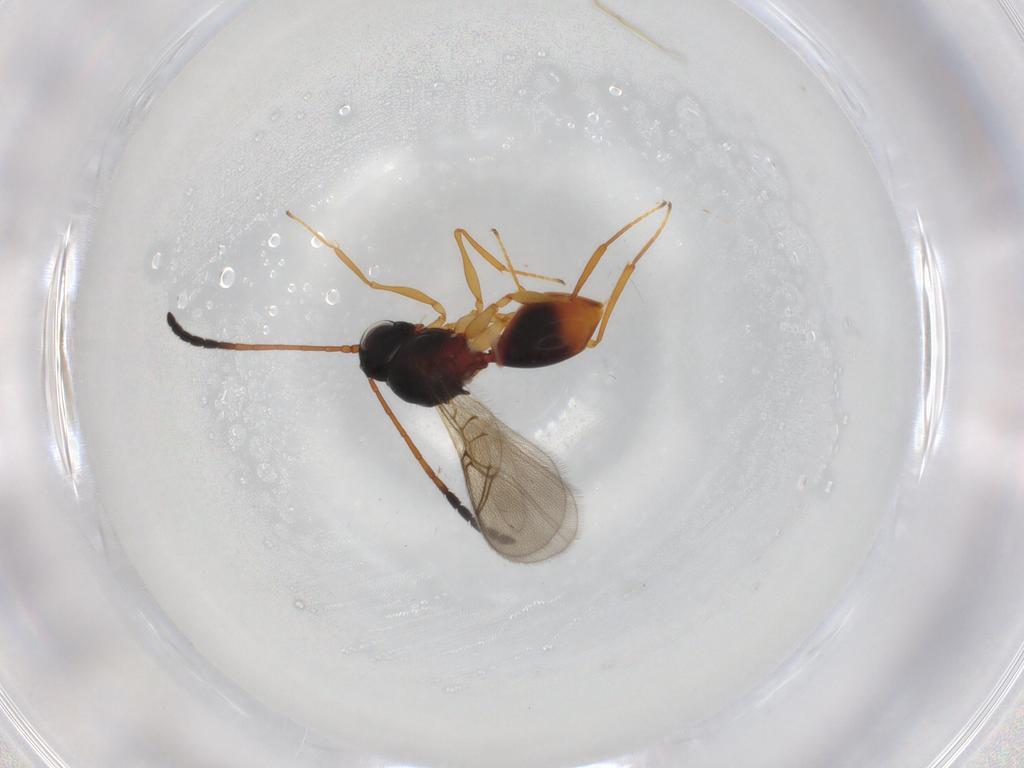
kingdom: Animalia
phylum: Arthropoda
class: Insecta
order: Hymenoptera
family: Figitidae
